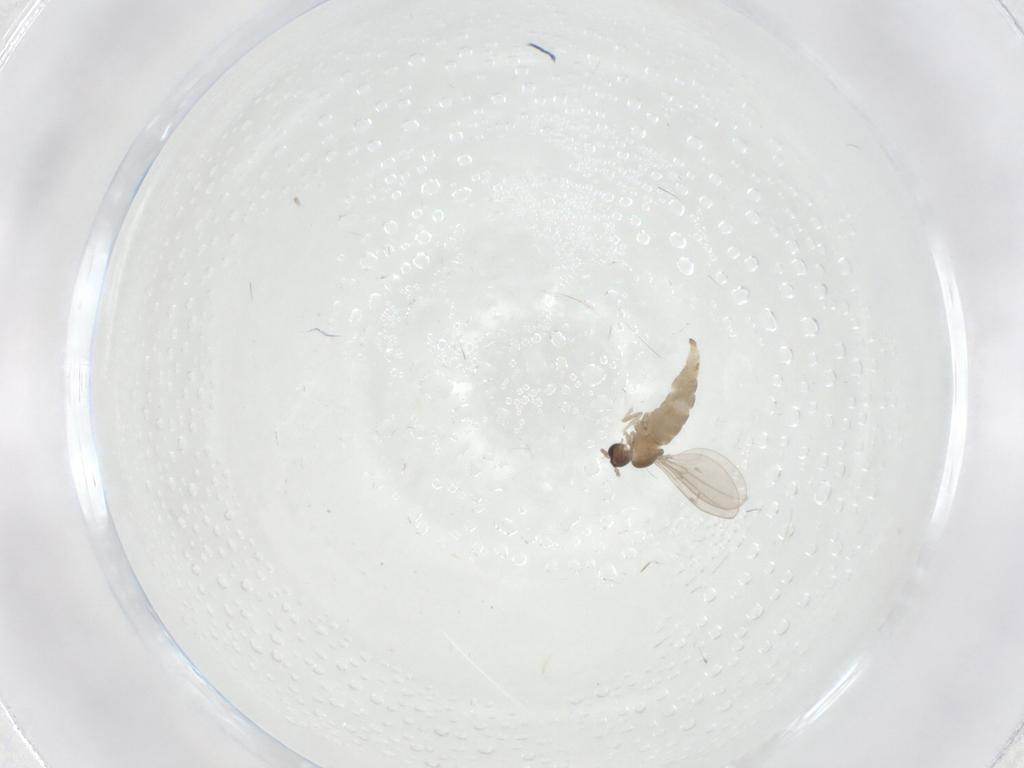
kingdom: Animalia
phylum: Arthropoda
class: Insecta
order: Diptera
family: Cecidomyiidae
